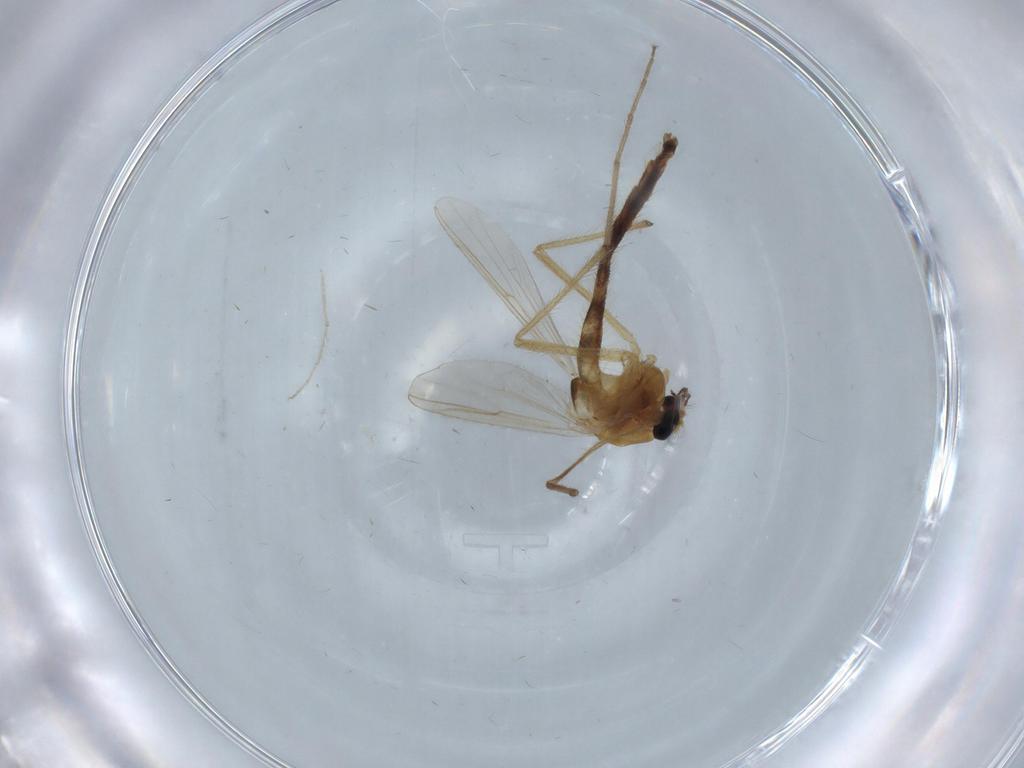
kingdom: Animalia
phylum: Arthropoda
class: Insecta
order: Diptera
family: Chironomidae
